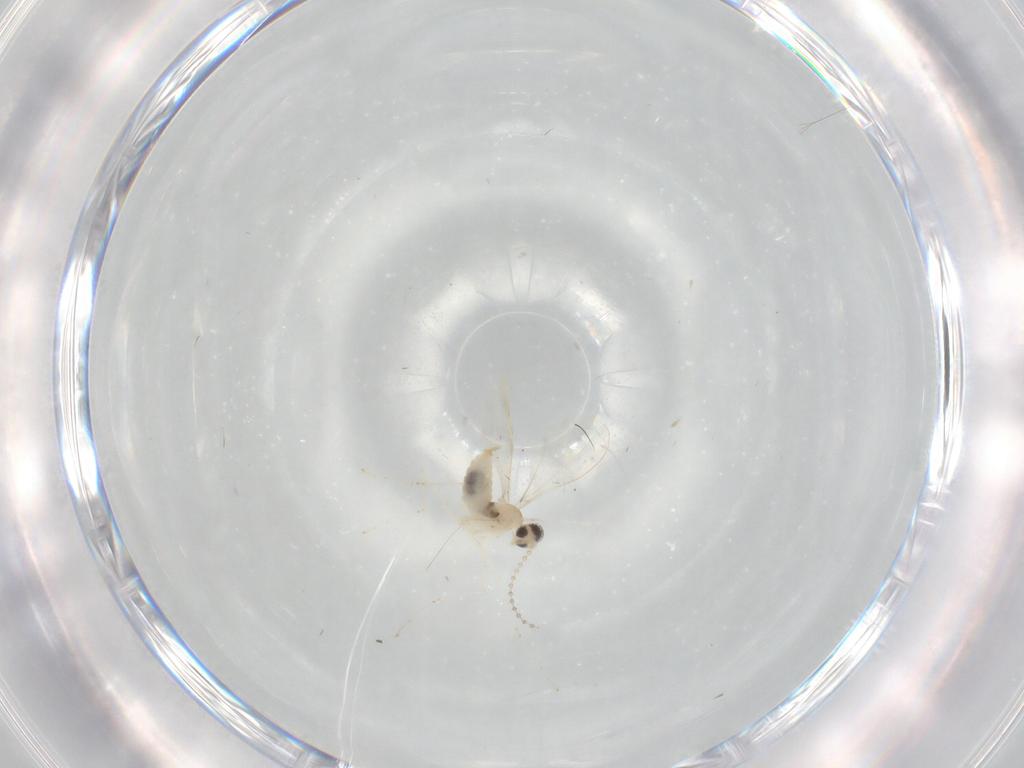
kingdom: Animalia
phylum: Arthropoda
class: Insecta
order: Diptera
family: Cecidomyiidae
